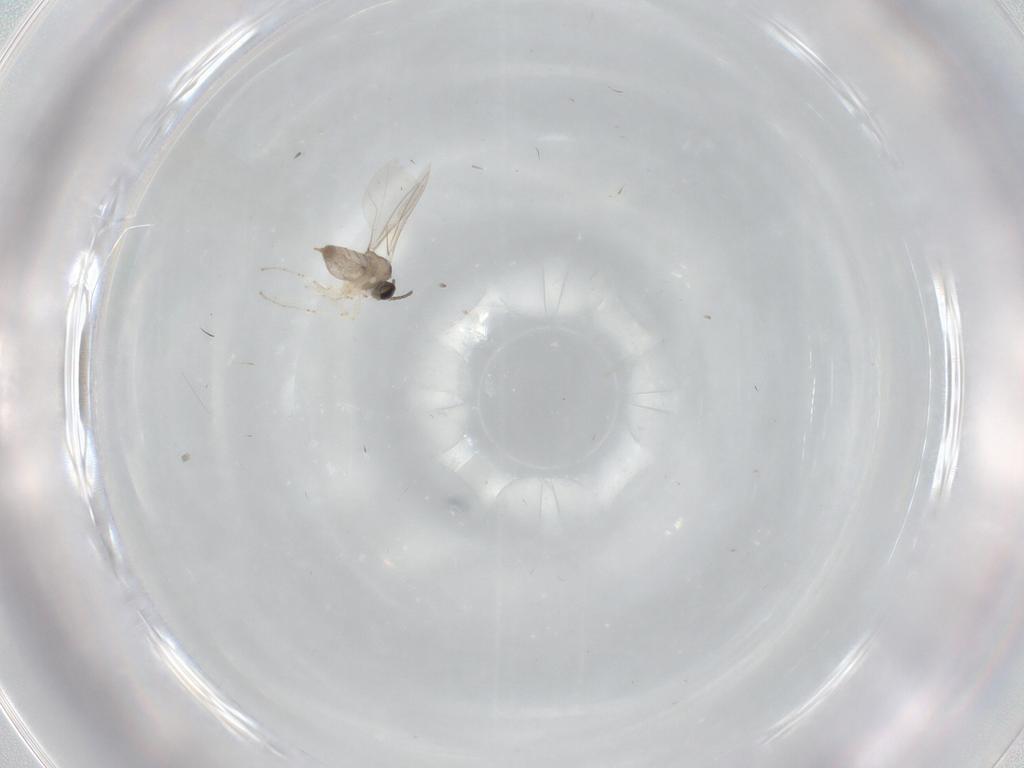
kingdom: Animalia
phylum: Arthropoda
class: Insecta
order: Diptera
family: Cecidomyiidae
